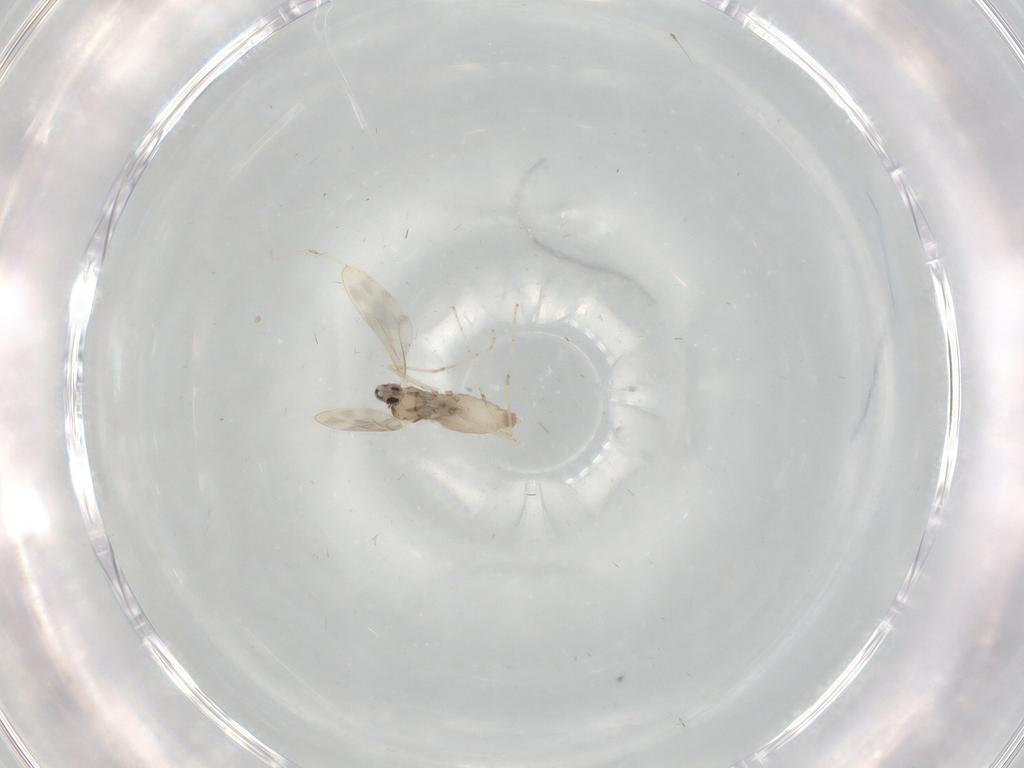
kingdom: Animalia
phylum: Arthropoda
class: Insecta
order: Diptera
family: Cecidomyiidae
